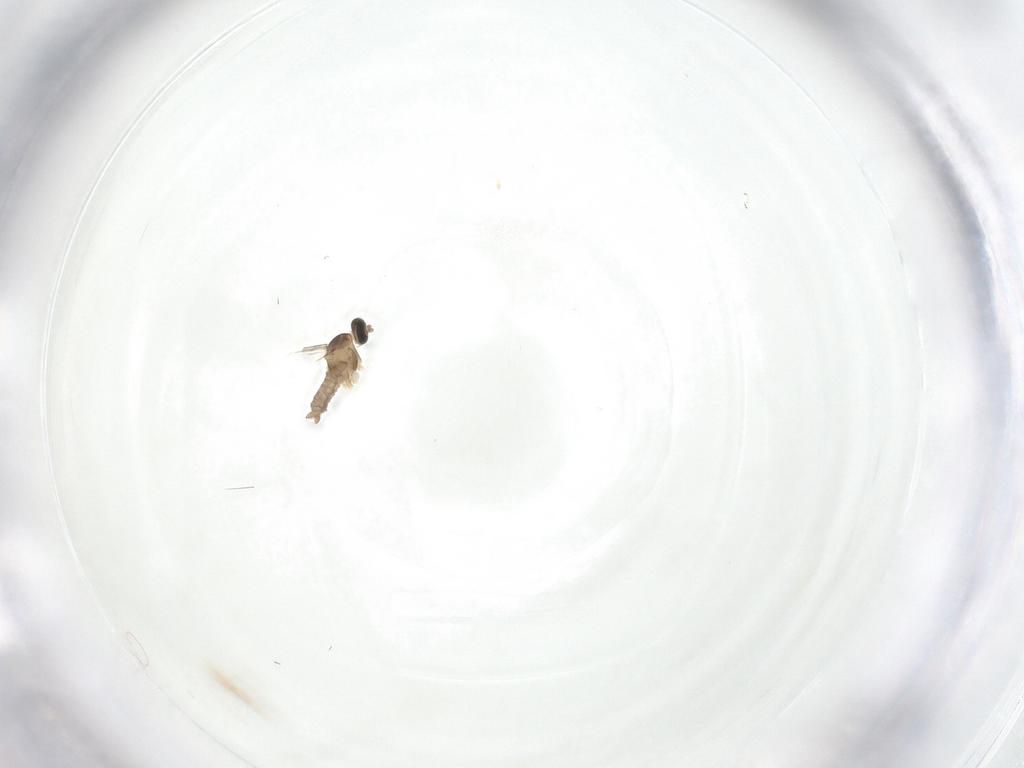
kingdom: Animalia
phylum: Arthropoda
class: Insecta
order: Diptera
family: Cecidomyiidae
